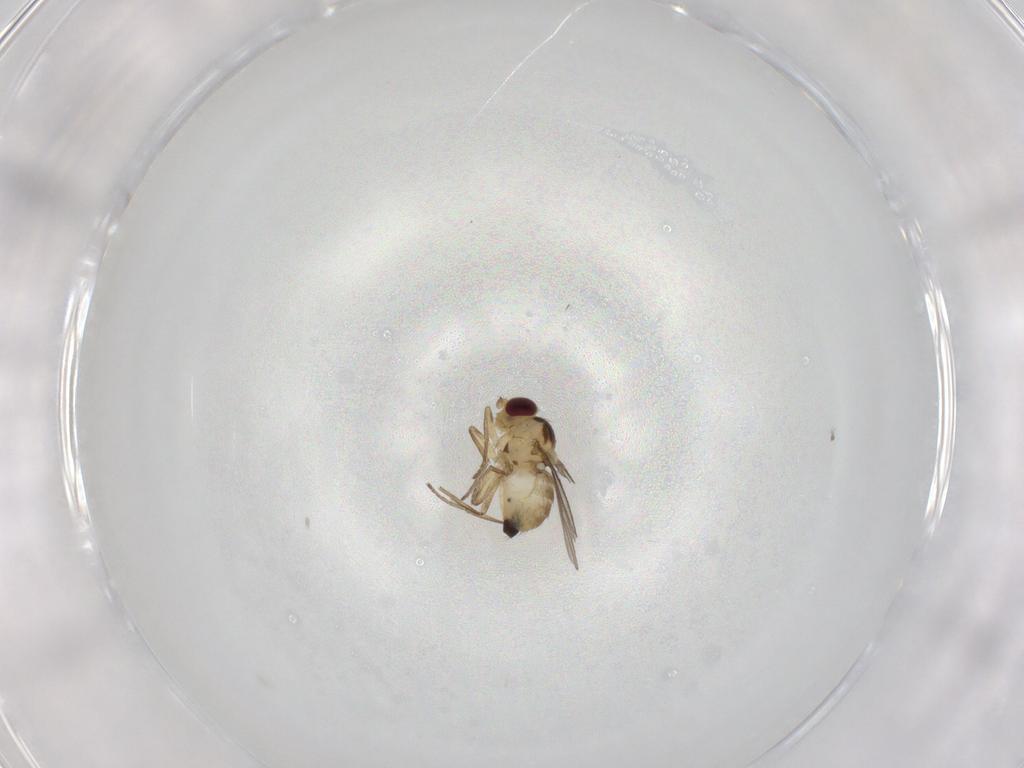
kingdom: Animalia
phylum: Arthropoda
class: Insecta
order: Diptera
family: Agromyzidae
